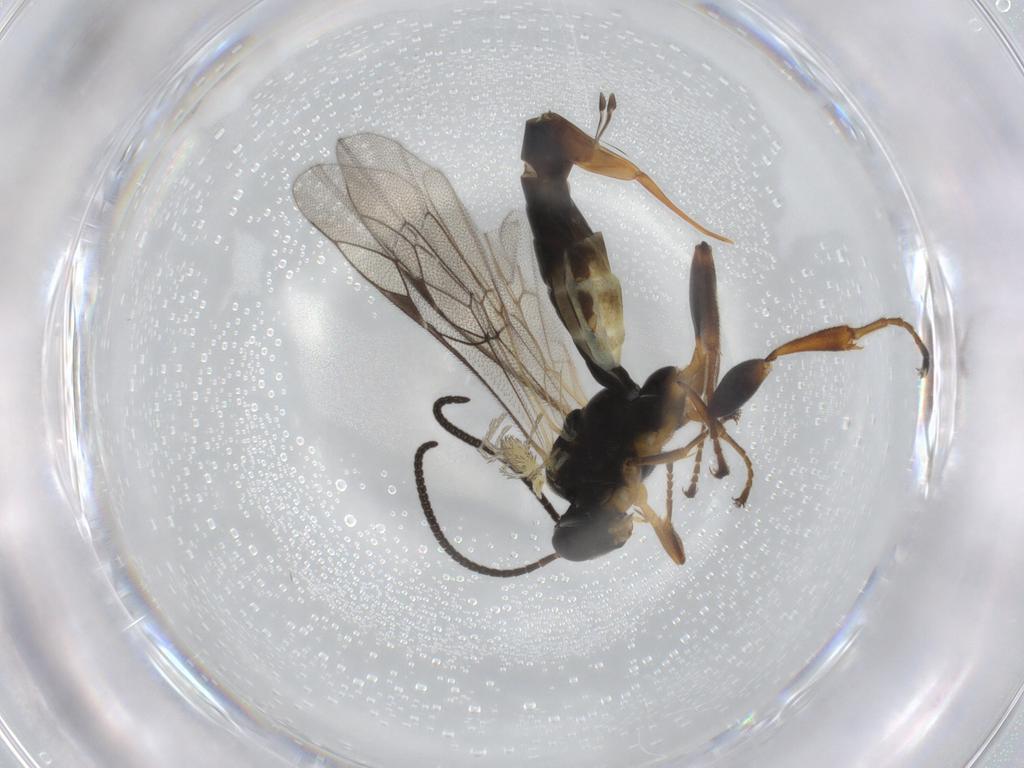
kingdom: Animalia
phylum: Arthropoda
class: Insecta
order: Hymenoptera
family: Ichneumonidae
